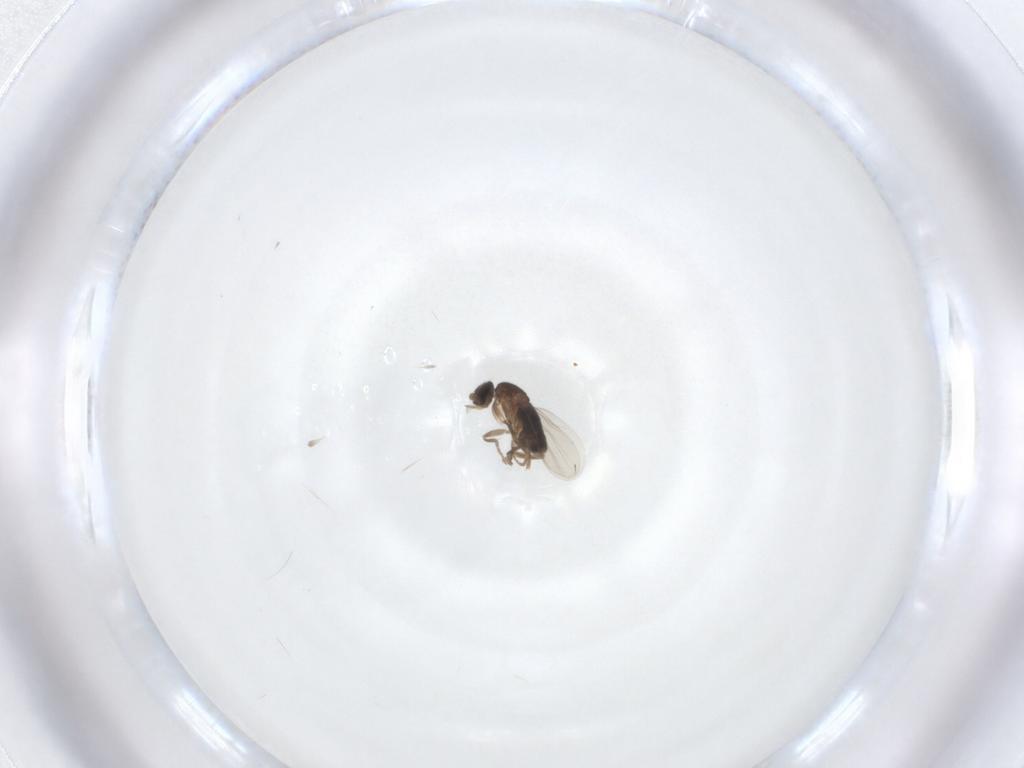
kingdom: Animalia
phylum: Arthropoda
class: Insecta
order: Diptera
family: Phoridae
